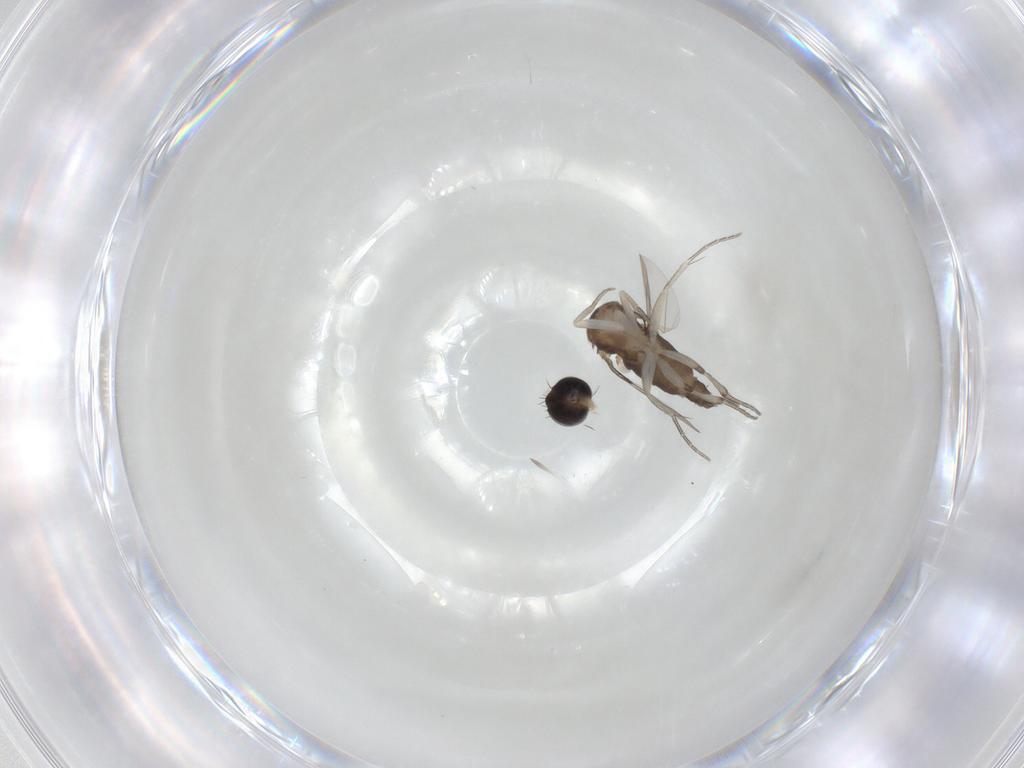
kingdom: Animalia
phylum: Arthropoda
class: Insecta
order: Diptera
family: Phoridae
